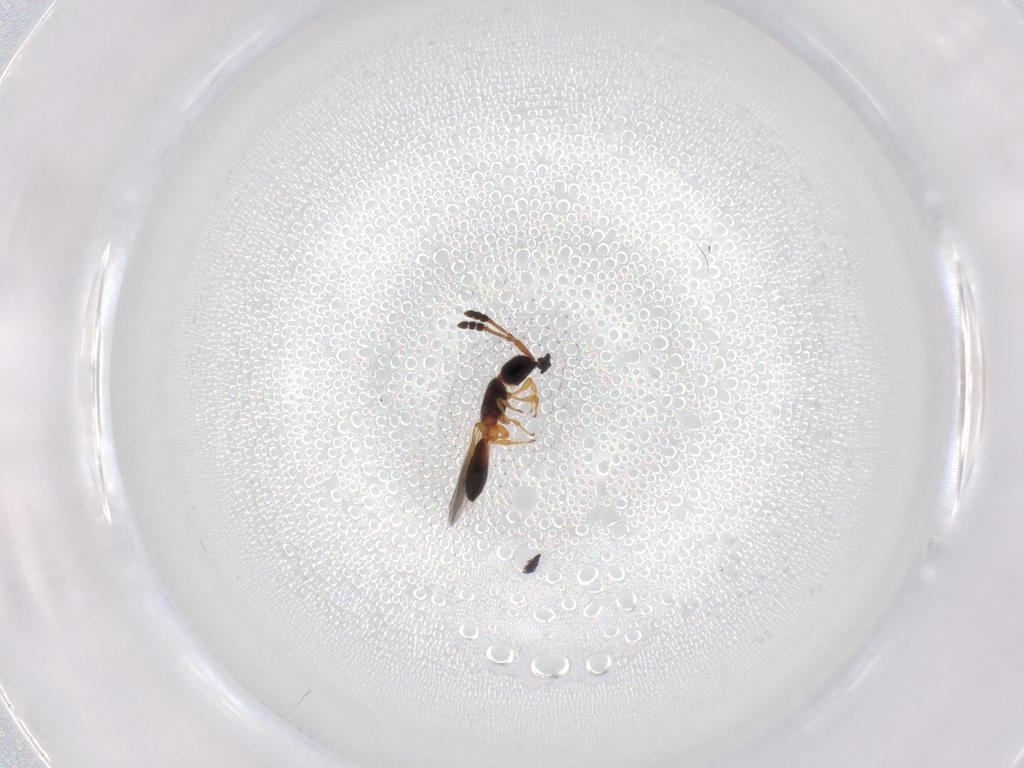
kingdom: Animalia
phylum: Arthropoda
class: Insecta
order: Hymenoptera
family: Diapriidae
